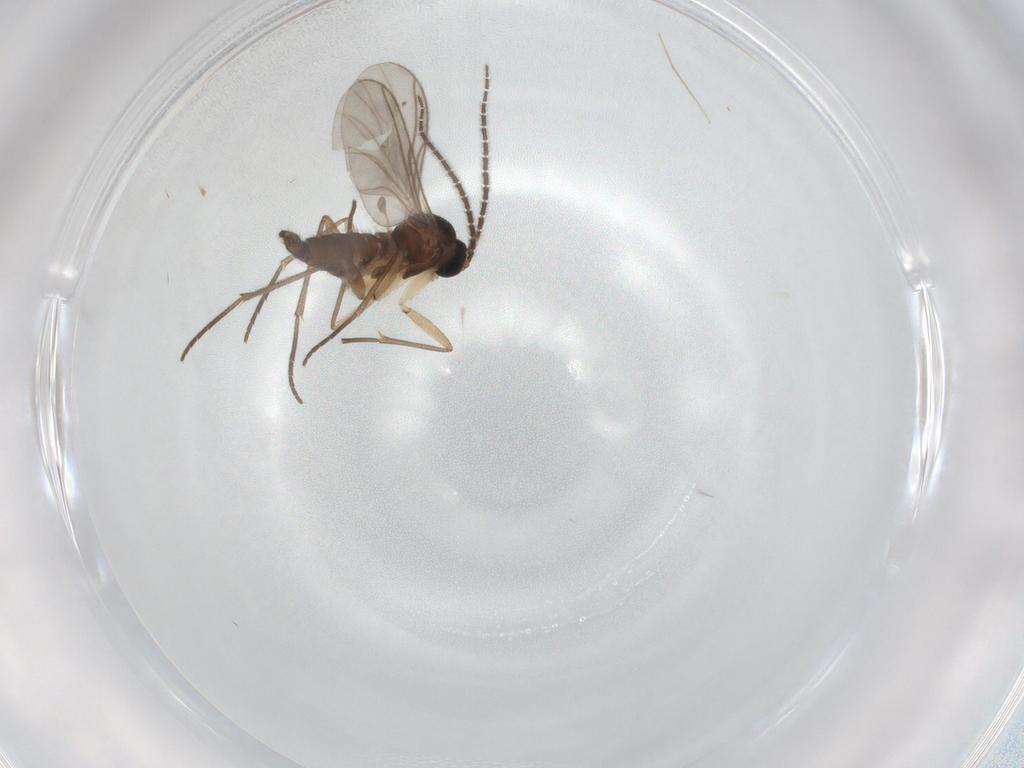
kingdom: Animalia
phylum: Arthropoda
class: Insecta
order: Diptera
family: Sciaridae
